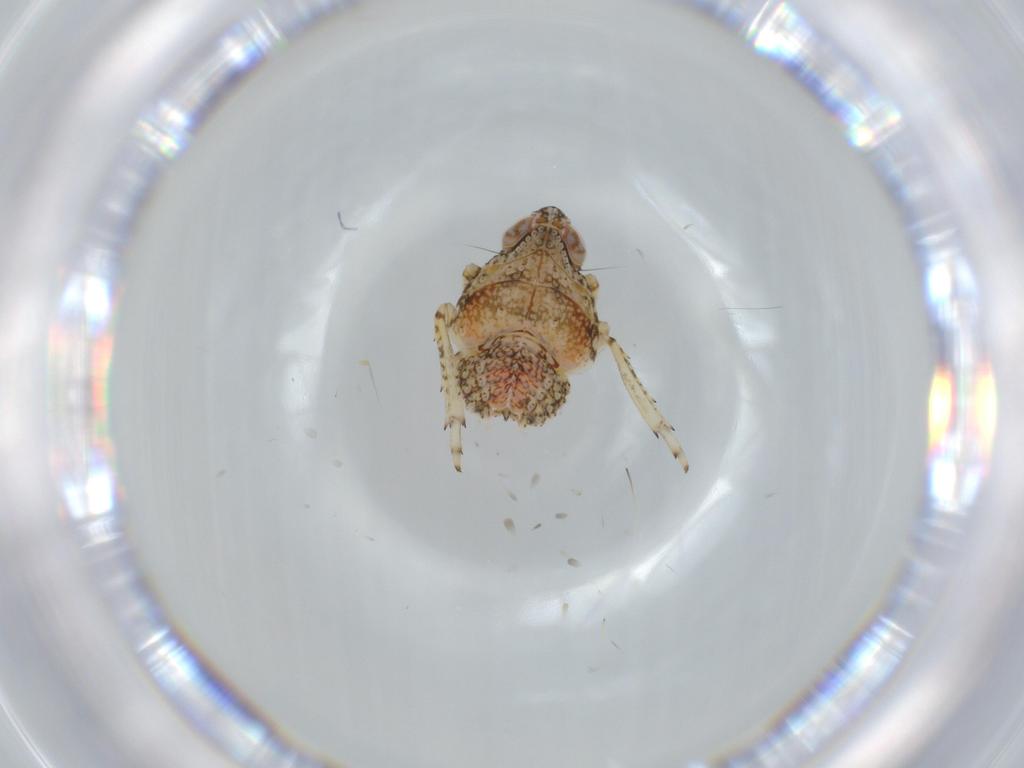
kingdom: Animalia
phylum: Arthropoda
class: Insecta
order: Hemiptera
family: Issidae
